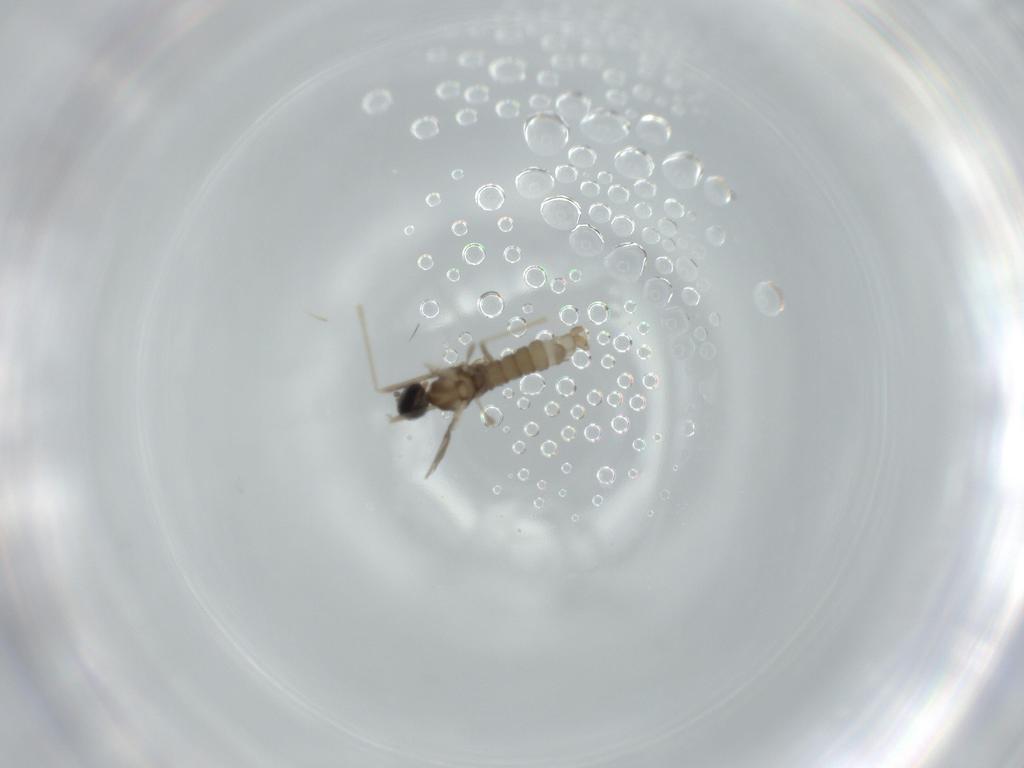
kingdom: Animalia
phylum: Arthropoda
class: Insecta
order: Diptera
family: Cecidomyiidae
